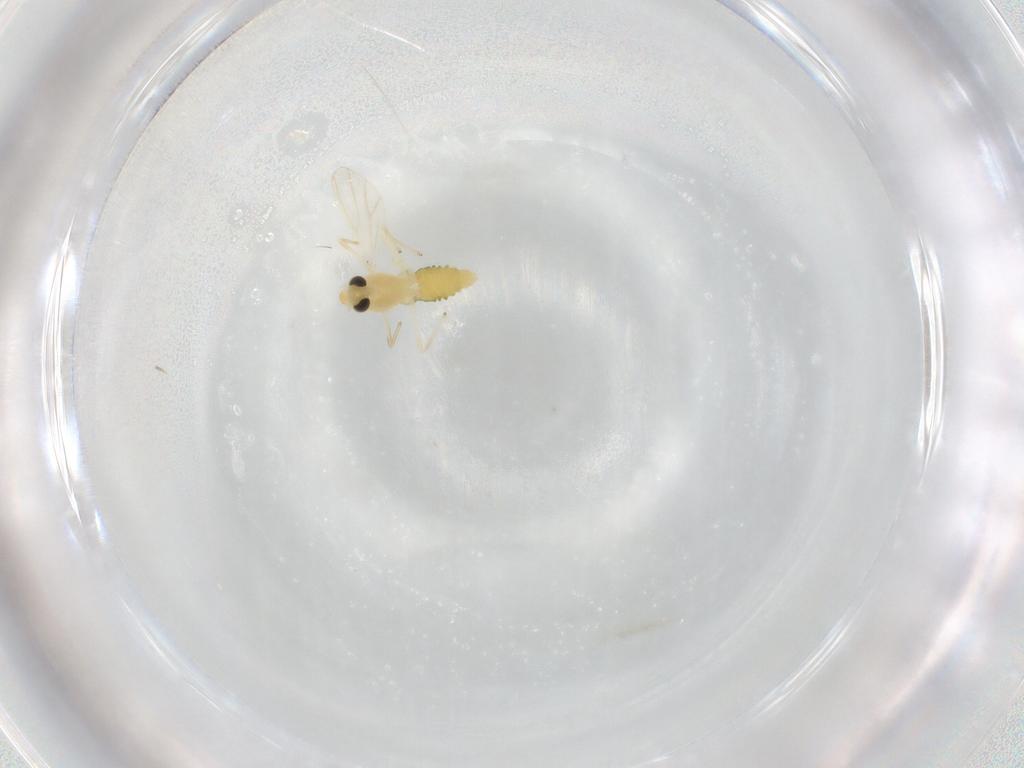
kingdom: Animalia
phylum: Arthropoda
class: Insecta
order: Diptera
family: Chironomidae
